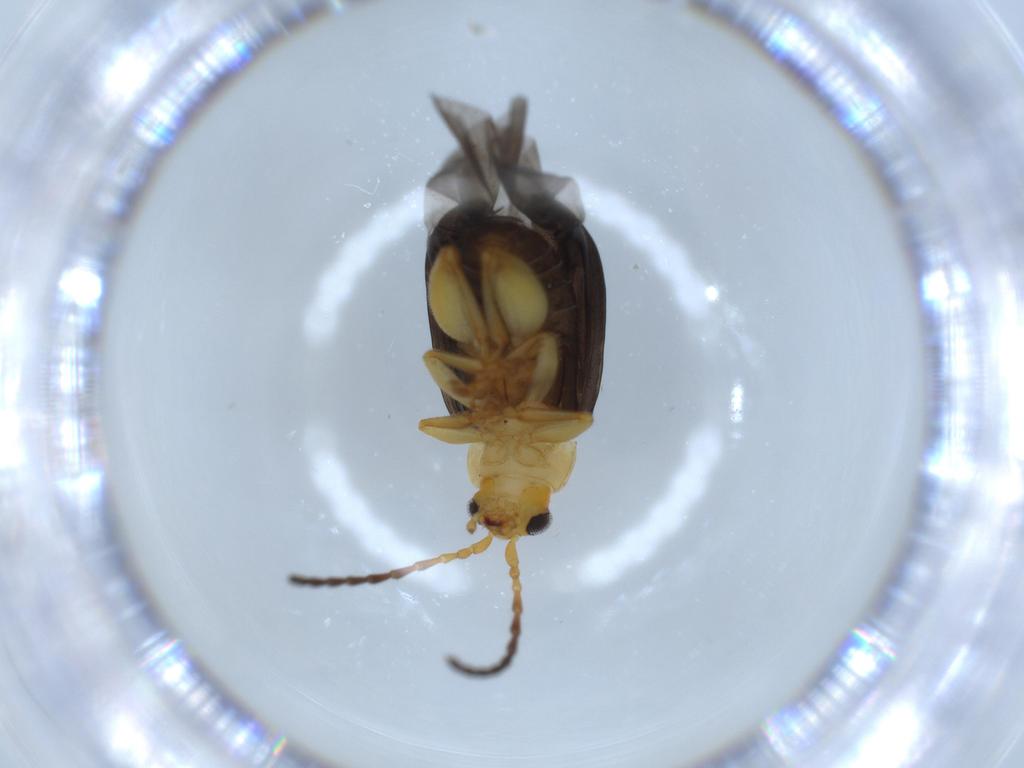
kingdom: Animalia
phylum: Arthropoda
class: Insecta
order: Coleoptera
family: Chrysomelidae
